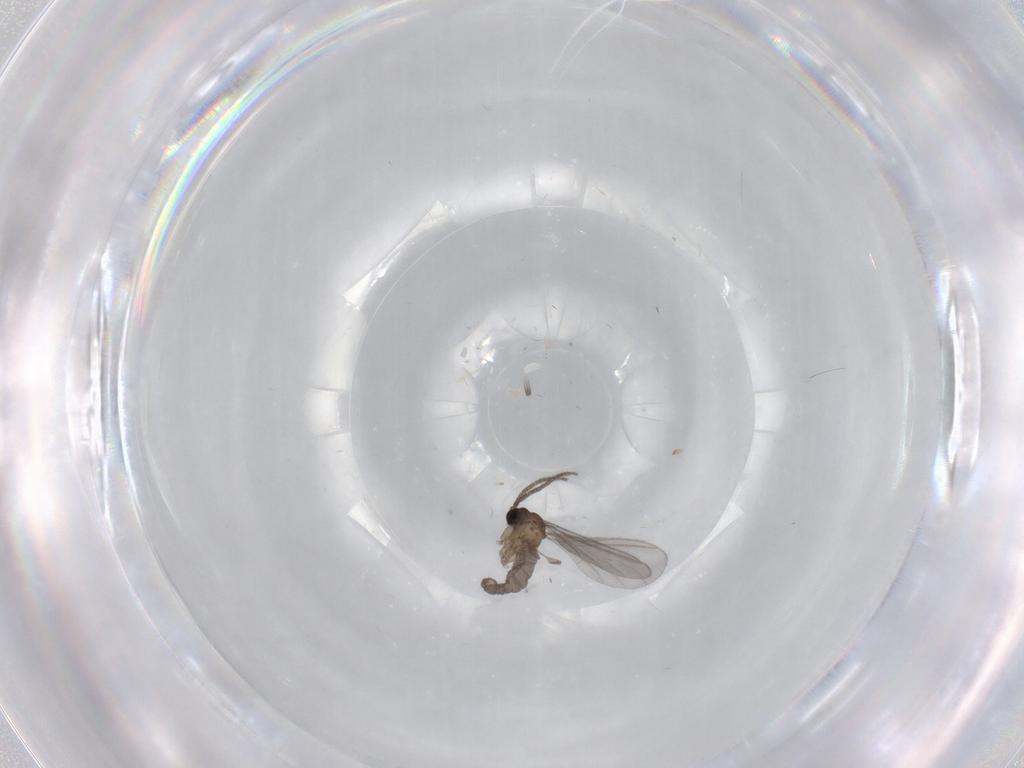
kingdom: Animalia
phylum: Arthropoda
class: Insecta
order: Diptera
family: Sciaridae
